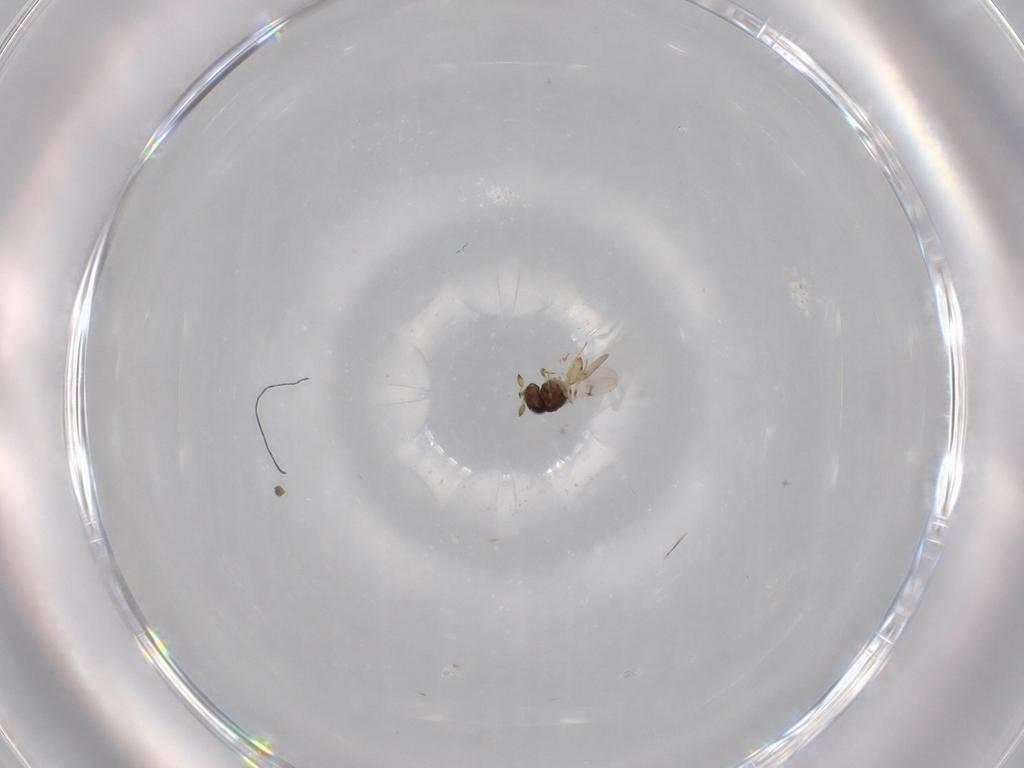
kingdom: Animalia
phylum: Arthropoda
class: Insecta
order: Hymenoptera
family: Scelionidae
